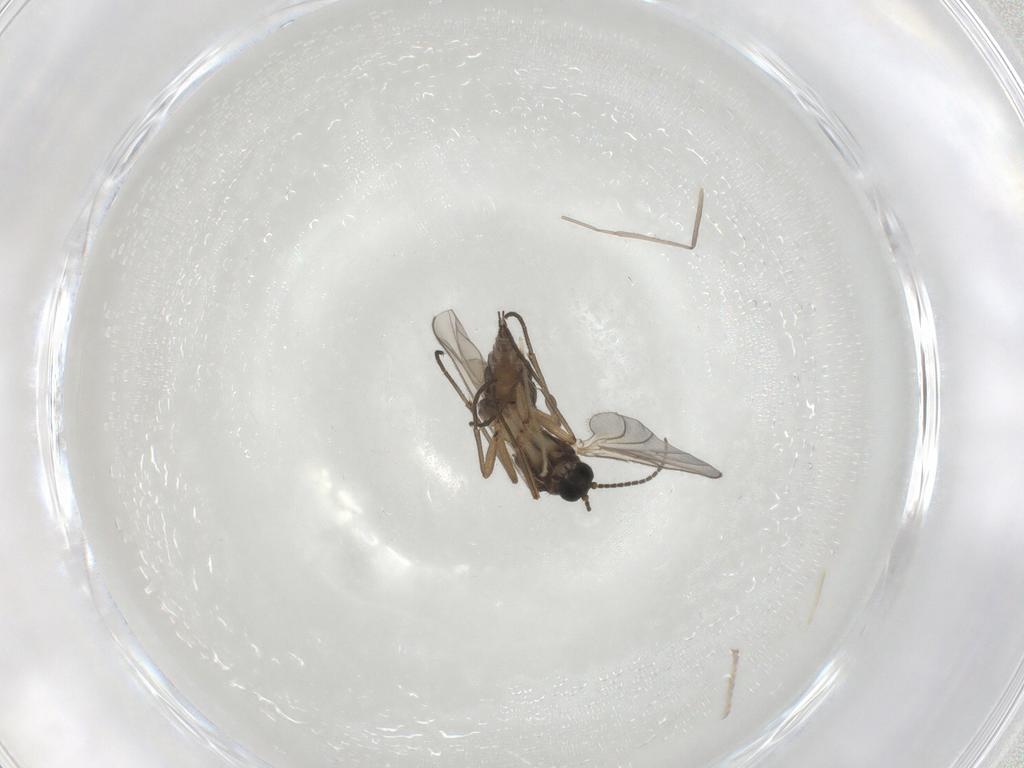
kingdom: Animalia
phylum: Arthropoda
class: Insecta
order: Diptera
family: Sciaridae
